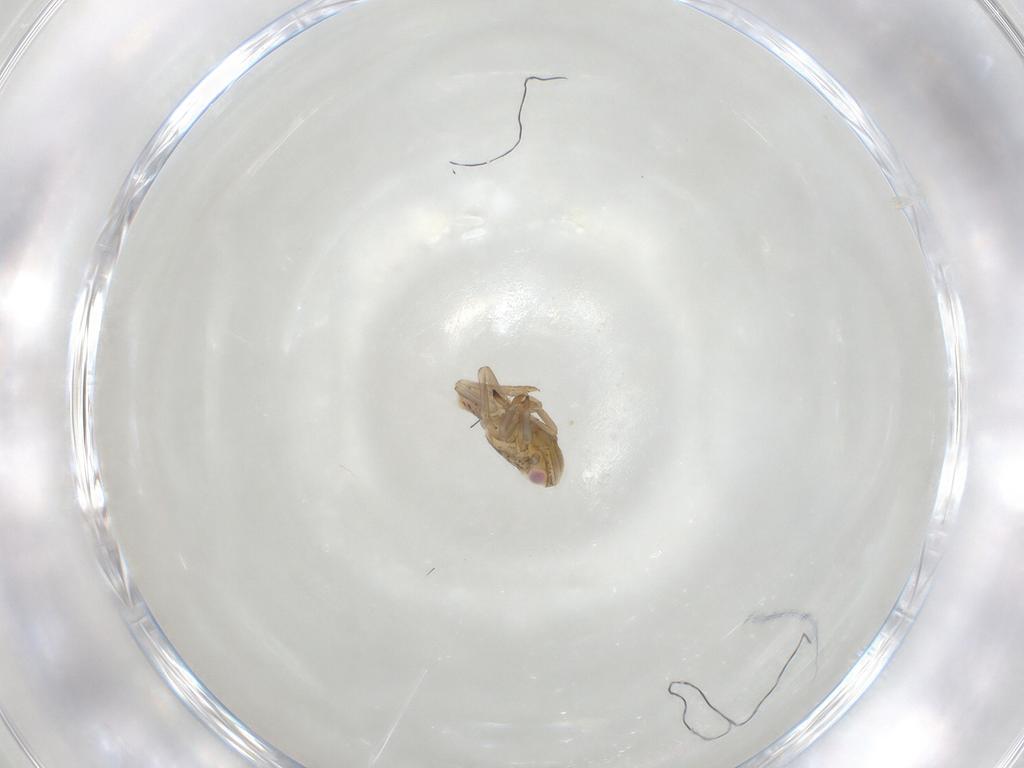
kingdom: Animalia
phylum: Arthropoda
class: Insecta
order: Hemiptera
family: Tropiduchidae
